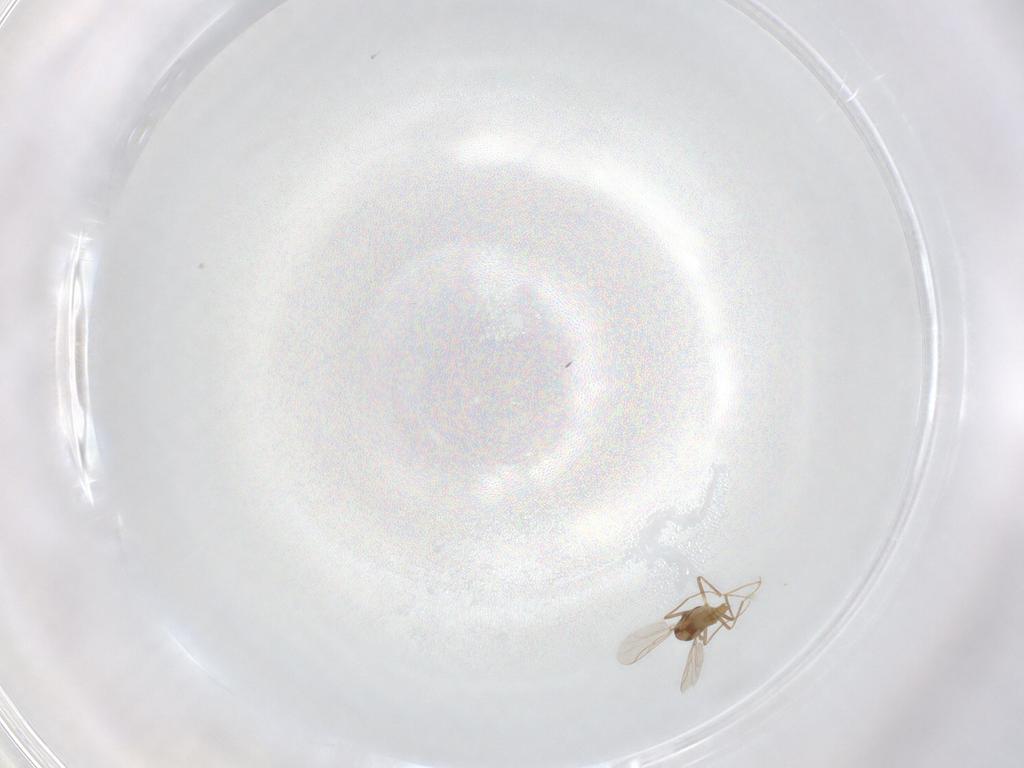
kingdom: Animalia
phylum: Arthropoda
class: Insecta
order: Diptera
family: Chironomidae
